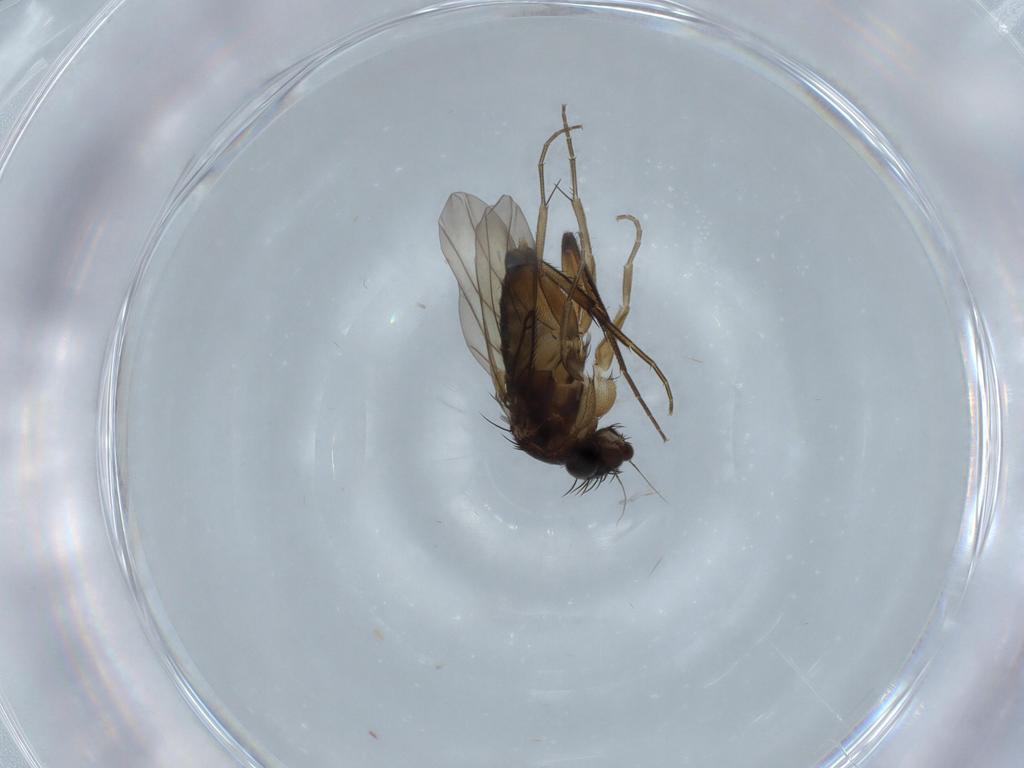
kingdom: Animalia
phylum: Arthropoda
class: Insecta
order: Diptera
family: Phoridae
